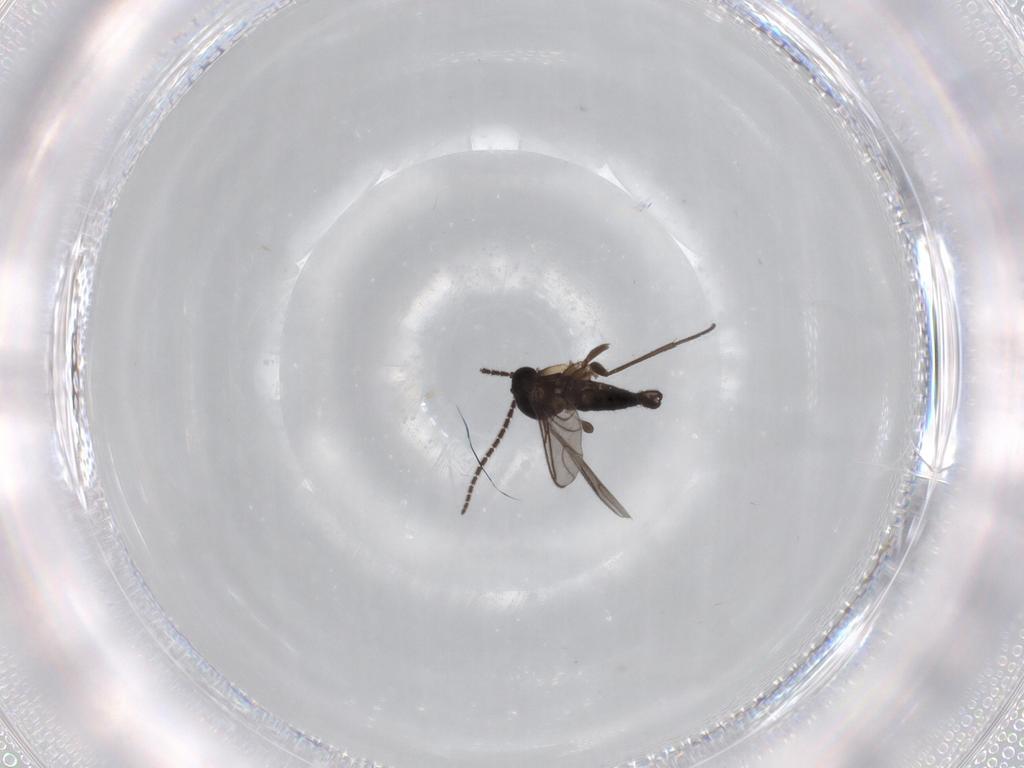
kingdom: Animalia
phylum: Arthropoda
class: Insecta
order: Diptera
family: Sciaridae
